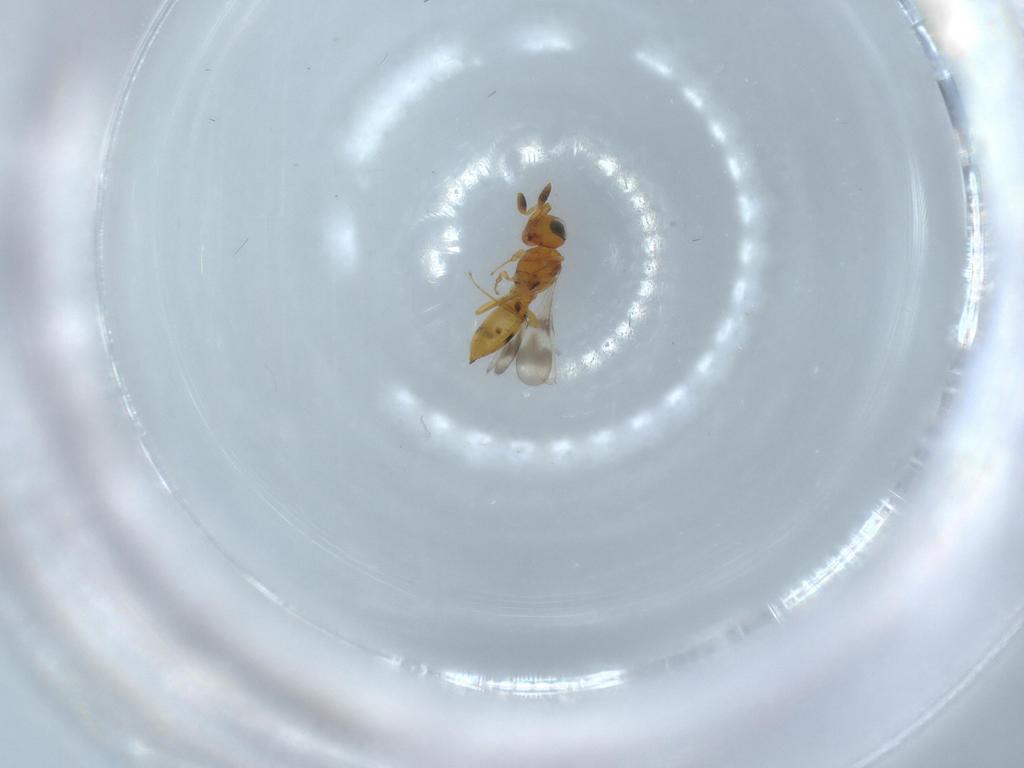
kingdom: Animalia
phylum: Arthropoda
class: Insecta
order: Hymenoptera
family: Scelionidae
